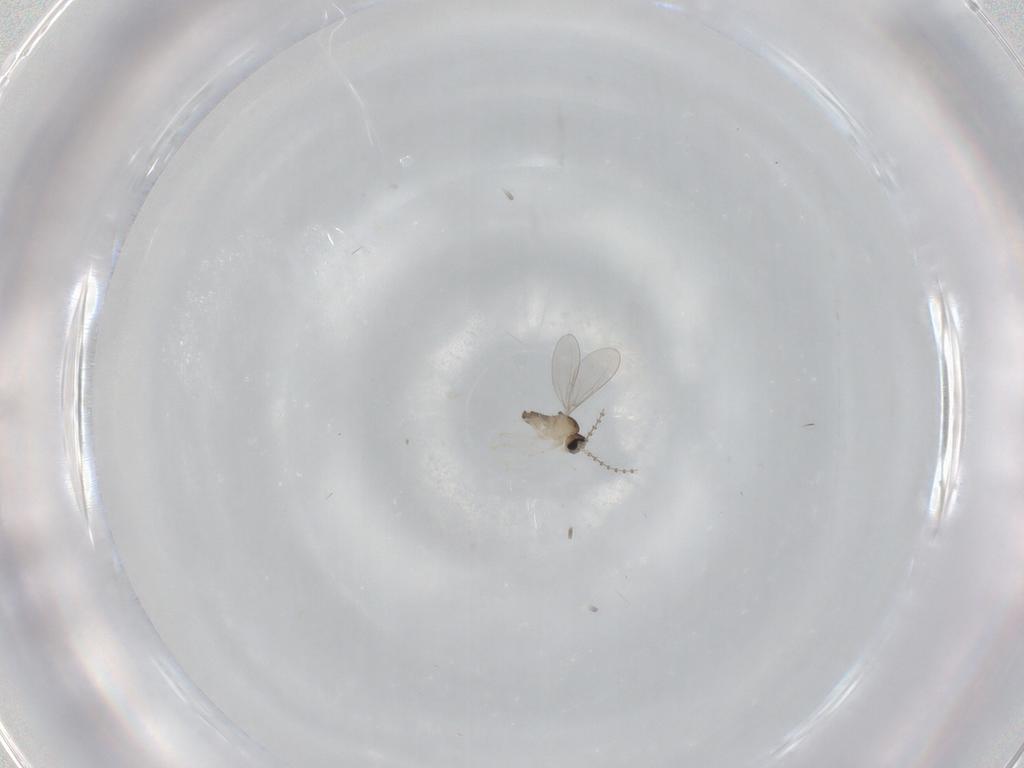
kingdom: Animalia
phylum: Arthropoda
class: Insecta
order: Diptera
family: Cecidomyiidae
